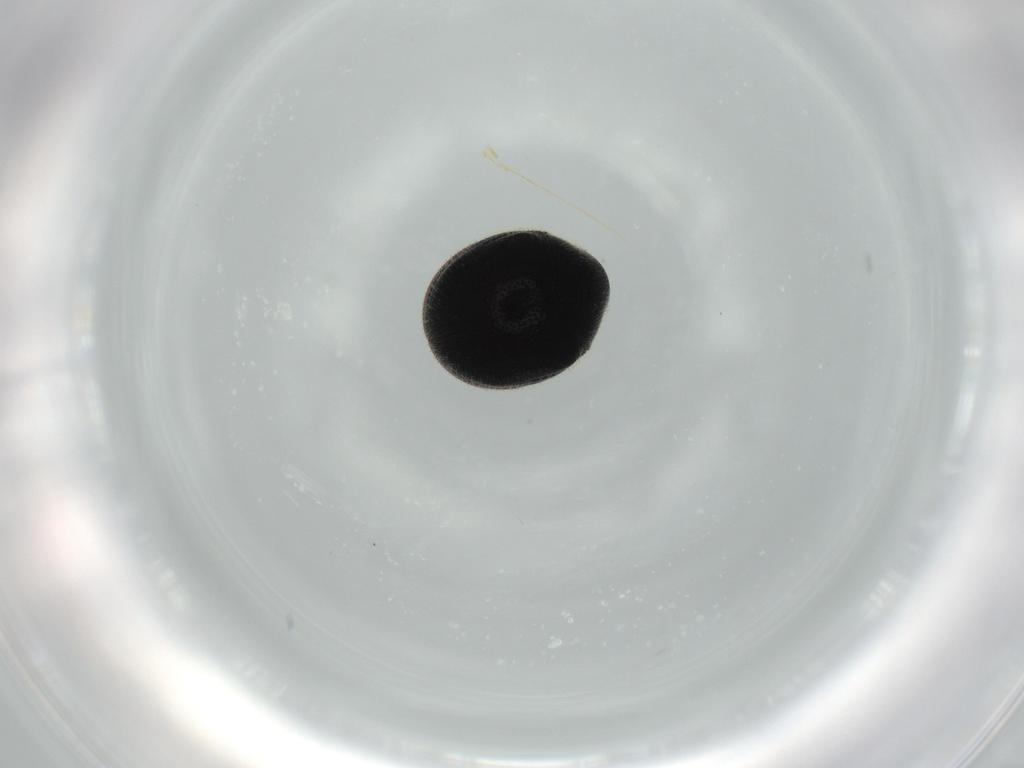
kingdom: Animalia
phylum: Arthropoda
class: Insecta
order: Coleoptera
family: Ptinidae
